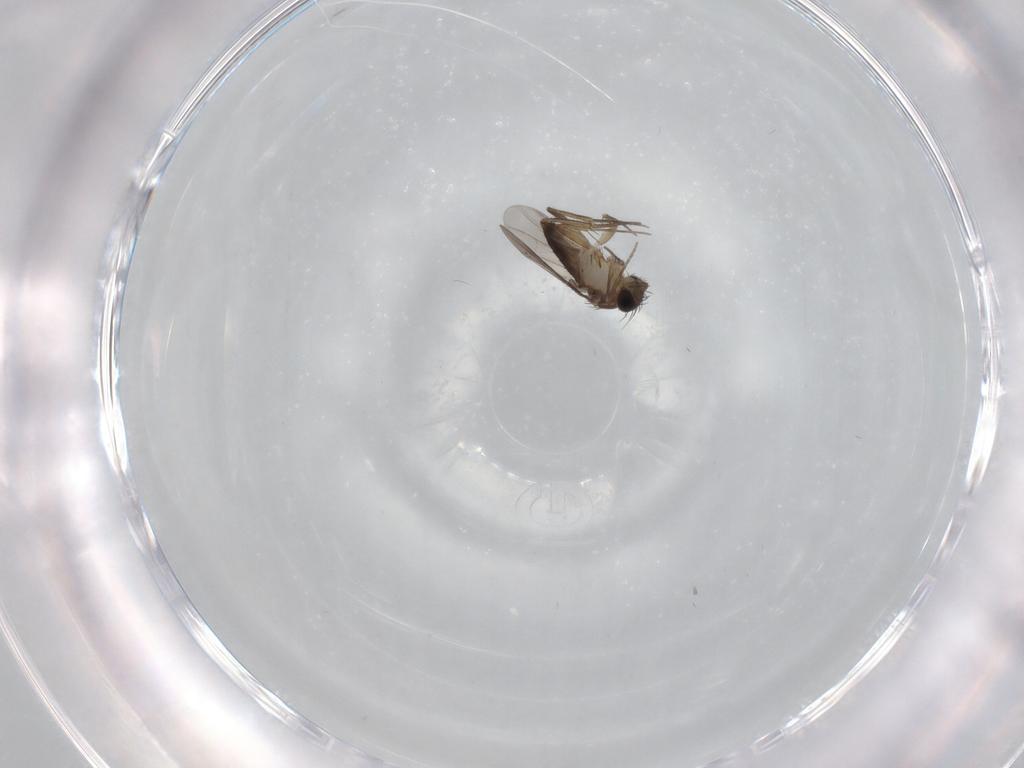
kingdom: Animalia
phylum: Arthropoda
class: Insecta
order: Diptera
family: Phoridae
